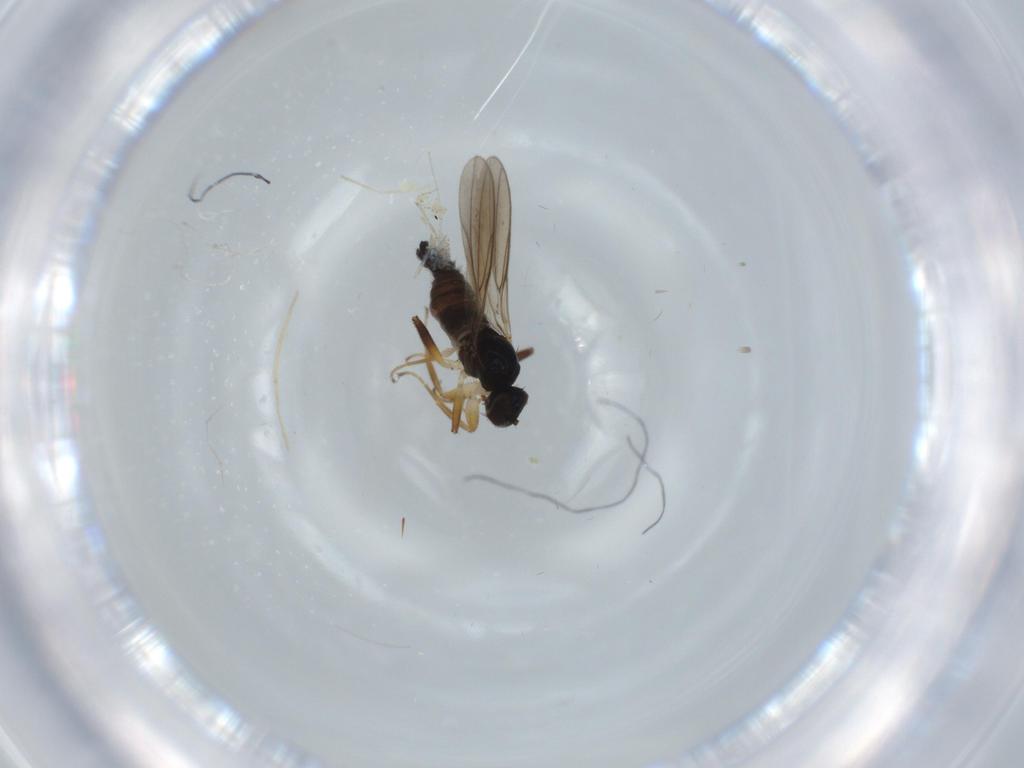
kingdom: Animalia
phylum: Arthropoda
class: Insecta
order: Diptera
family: Hybotidae
